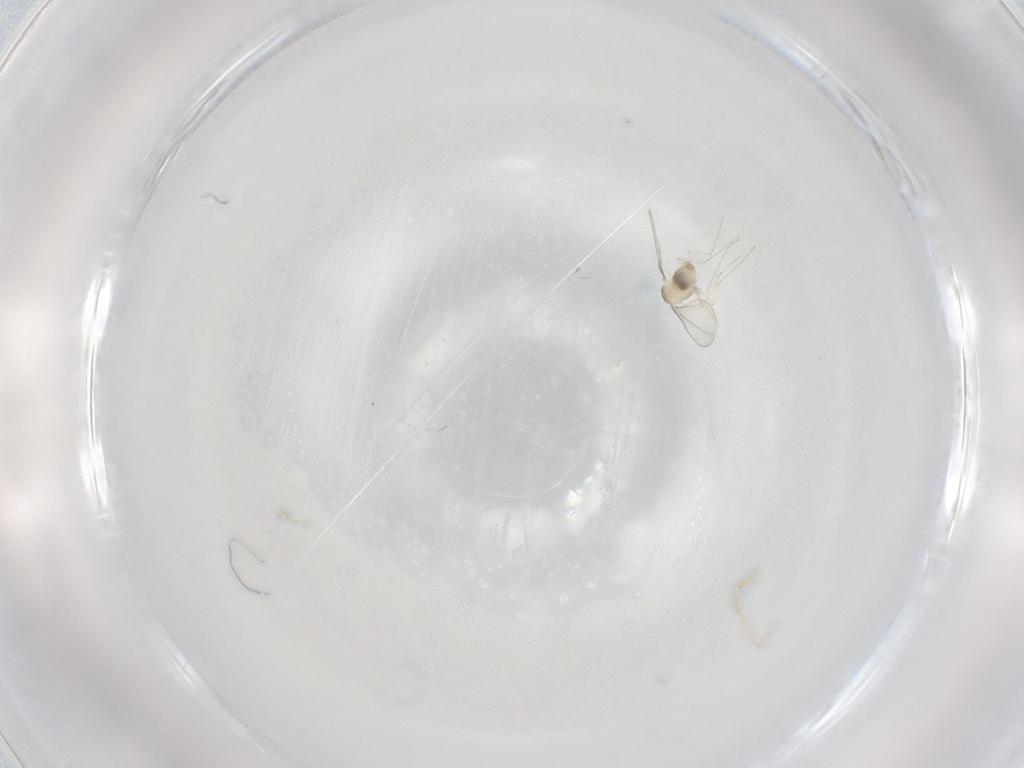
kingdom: Animalia
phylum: Arthropoda
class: Insecta
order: Diptera
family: Cecidomyiidae
